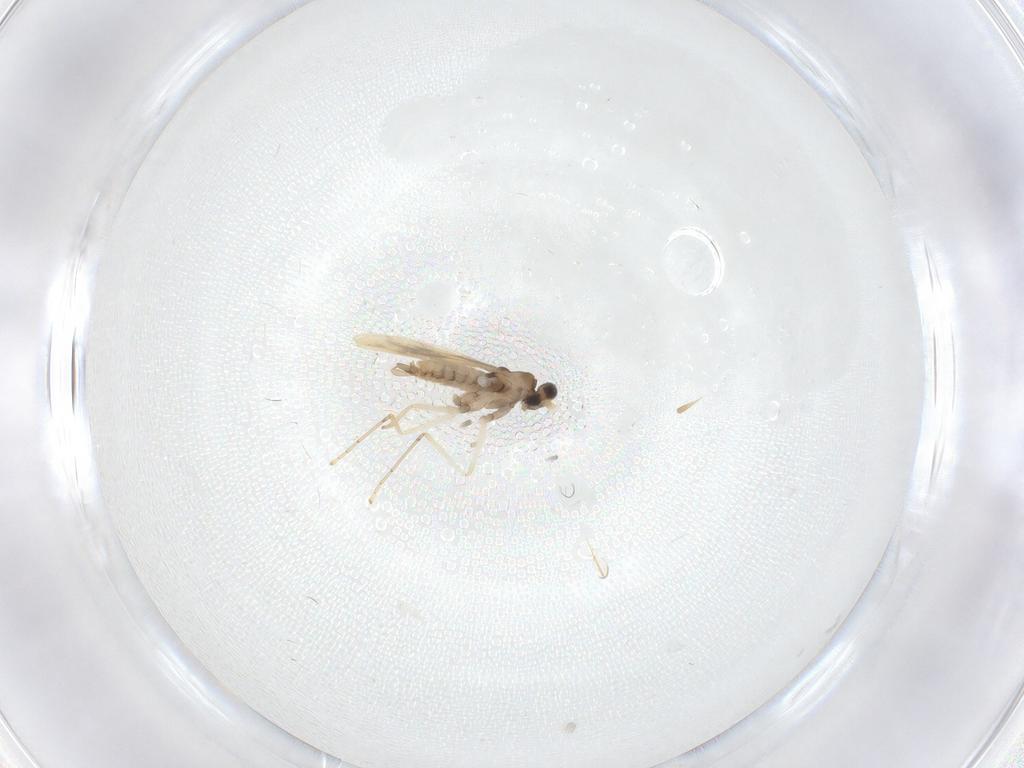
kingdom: Animalia
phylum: Arthropoda
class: Insecta
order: Diptera
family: Cecidomyiidae
